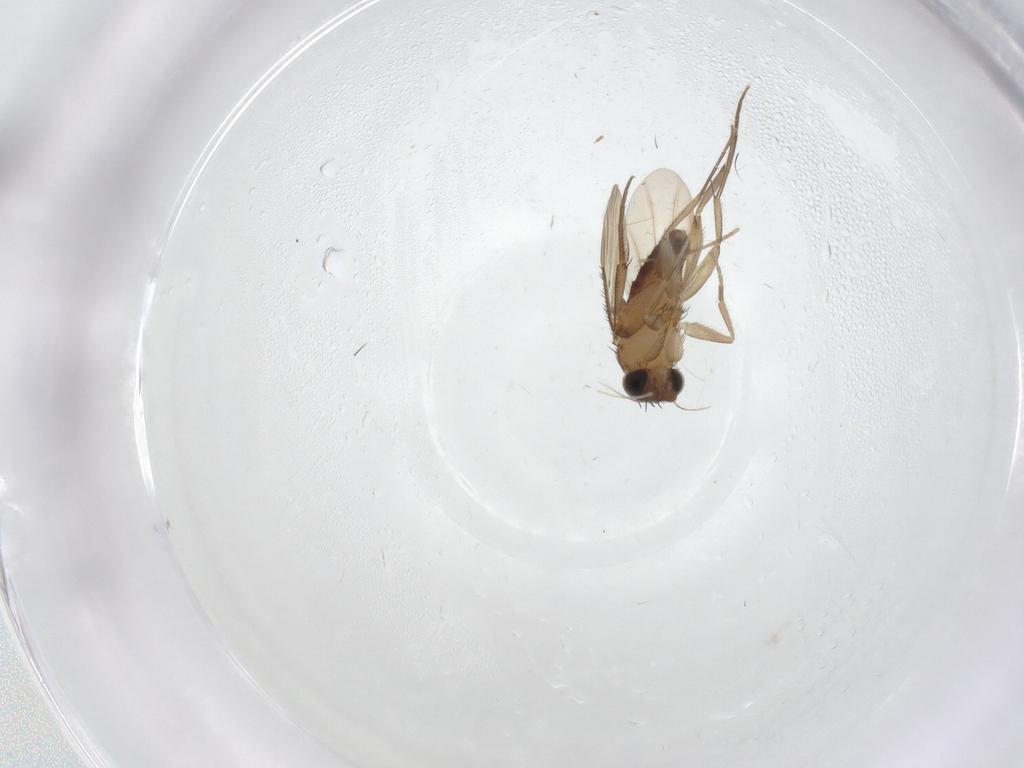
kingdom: Animalia
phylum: Arthropoda
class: Insecta
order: Diptera
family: Phoridae
